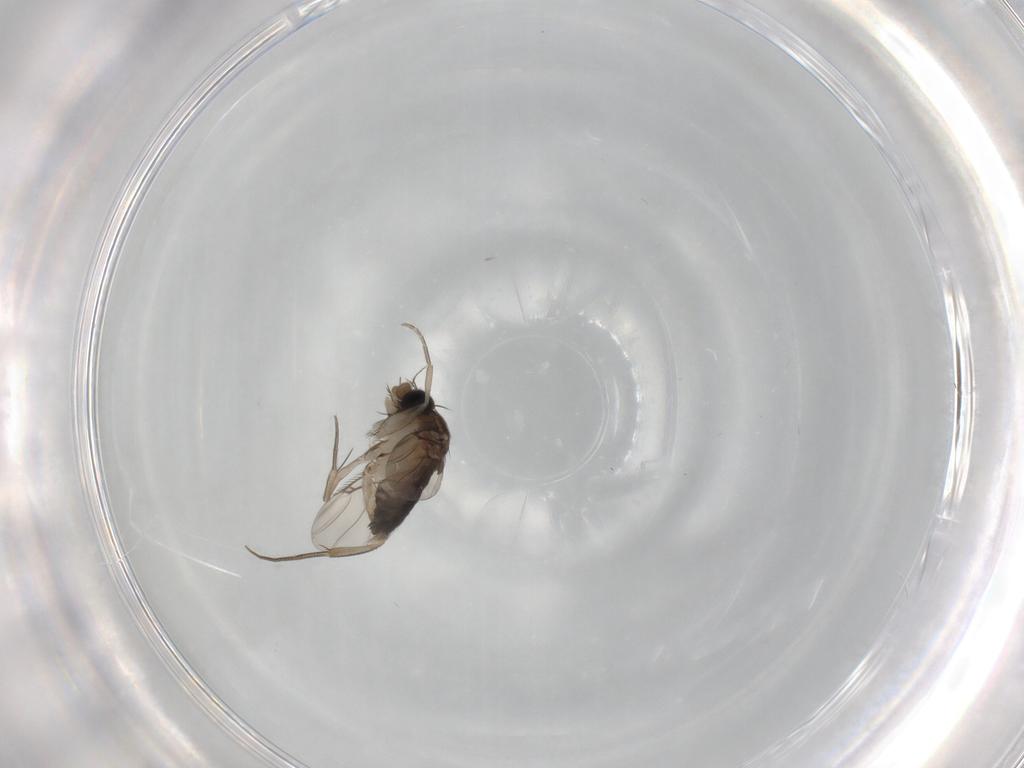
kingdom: Animalia
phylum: Arthropoda
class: Insecta
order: Diptera
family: Phoridae
